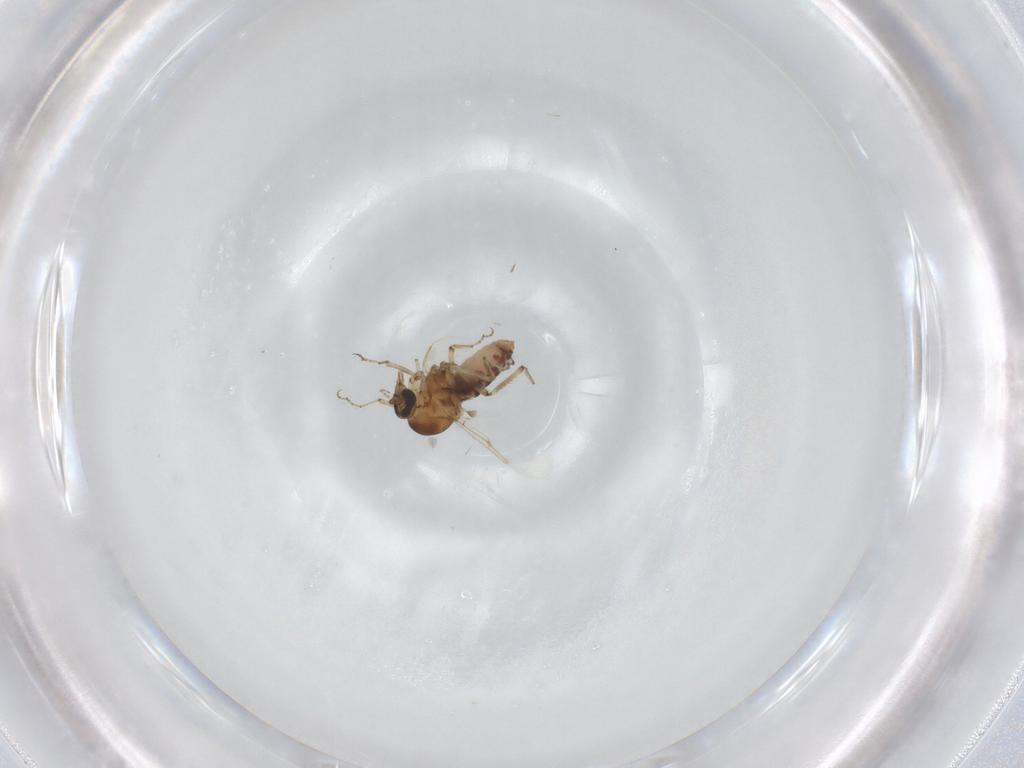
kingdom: Animalia
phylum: Arthropoda
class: Insecta
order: Diptera
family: Ceratopogonidae
